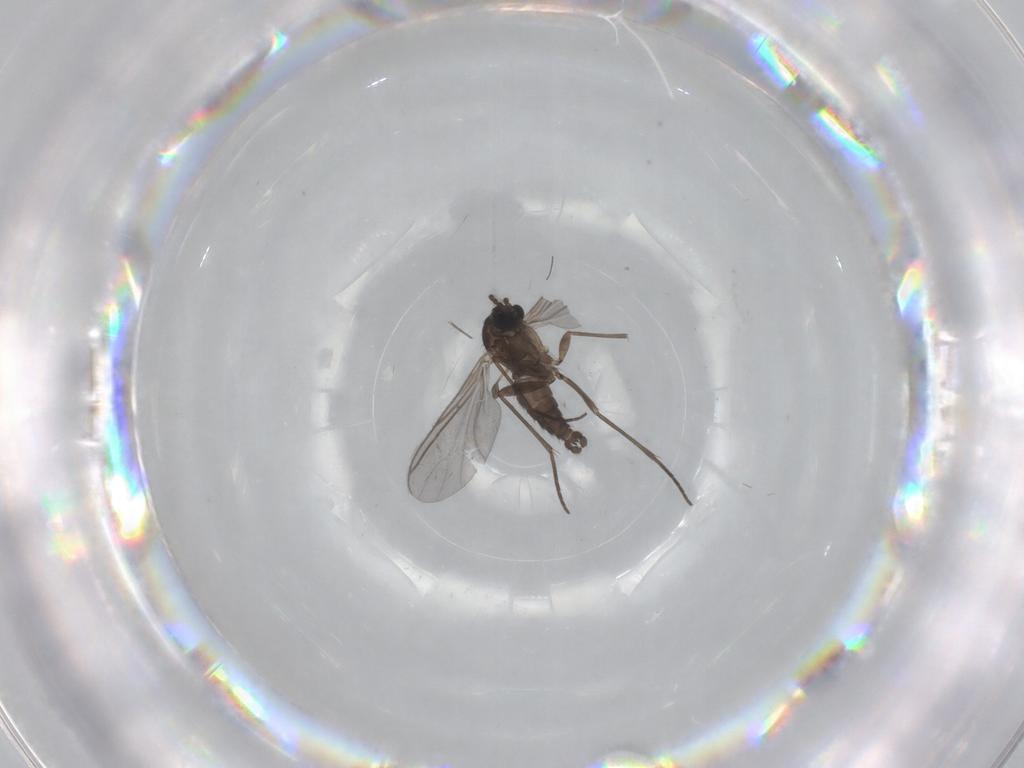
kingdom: Animalia
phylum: Arthropoda
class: Insecta
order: Diptera
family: Sciaridae
